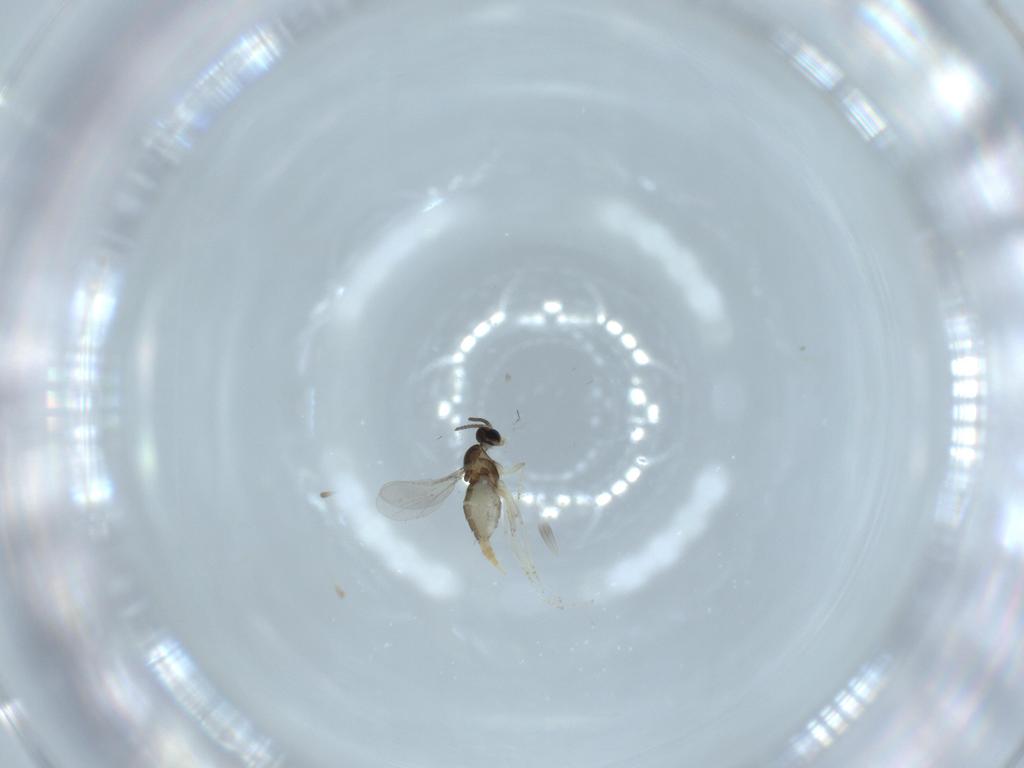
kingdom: Animalia
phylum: Arthropoda
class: Insecta
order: Diptera
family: Cecidomyiidae
